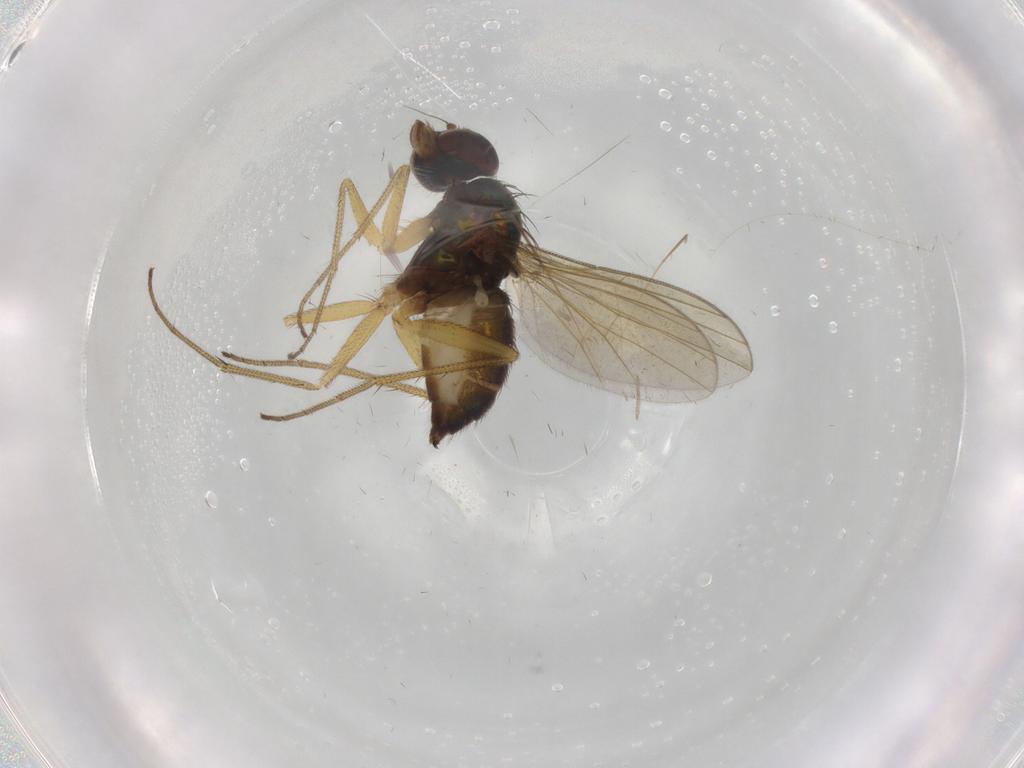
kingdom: Animalia
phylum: Arthropoda
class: Insecta
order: Diptera
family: Dolichopodidae
